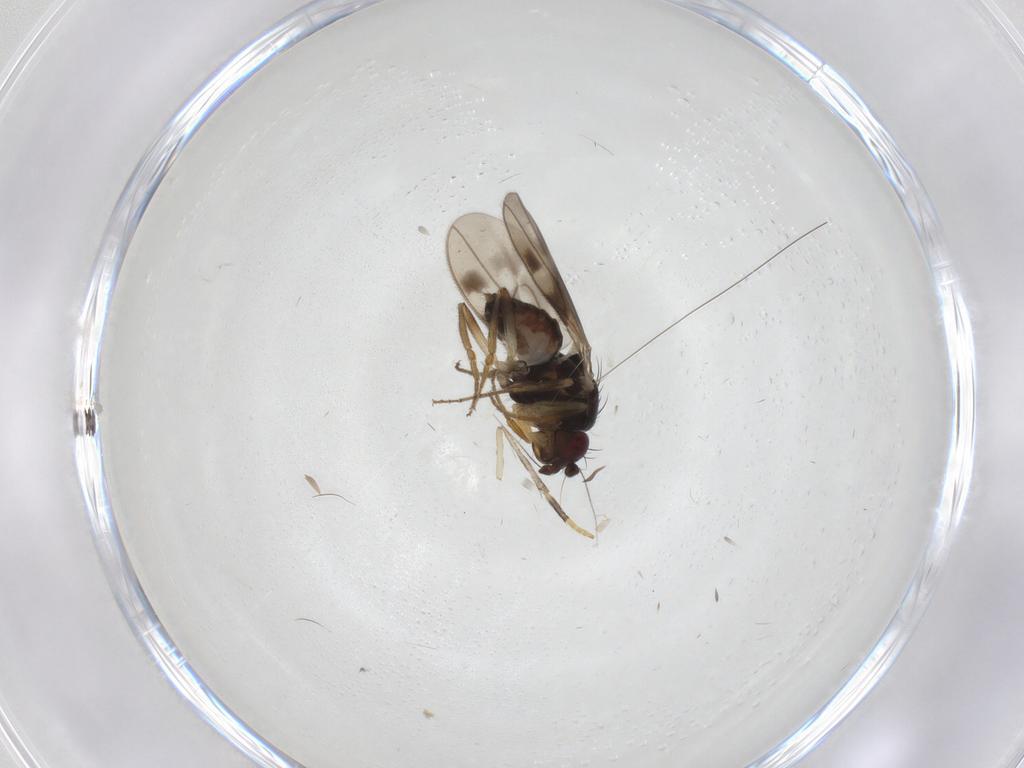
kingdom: Animalia
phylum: Arthropoda
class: Insecta
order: Diptera
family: Sphaeroceridae
